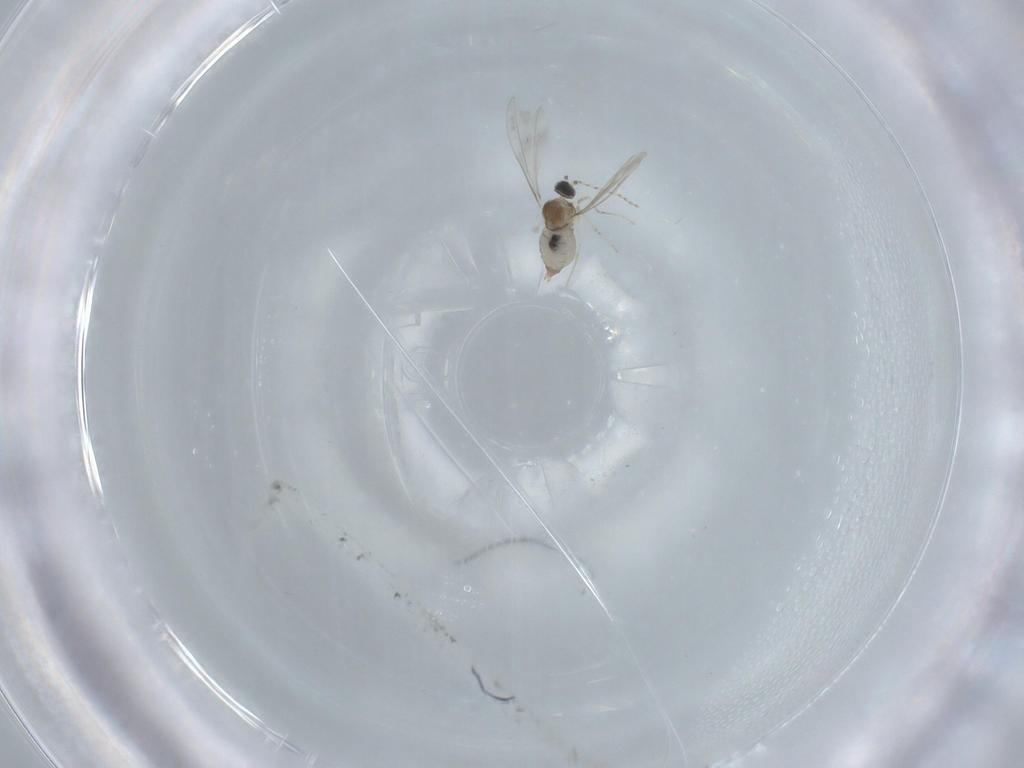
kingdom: Animalia
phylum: Arthropoda
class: Insecta
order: Diptera
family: Cecidomyiidae
